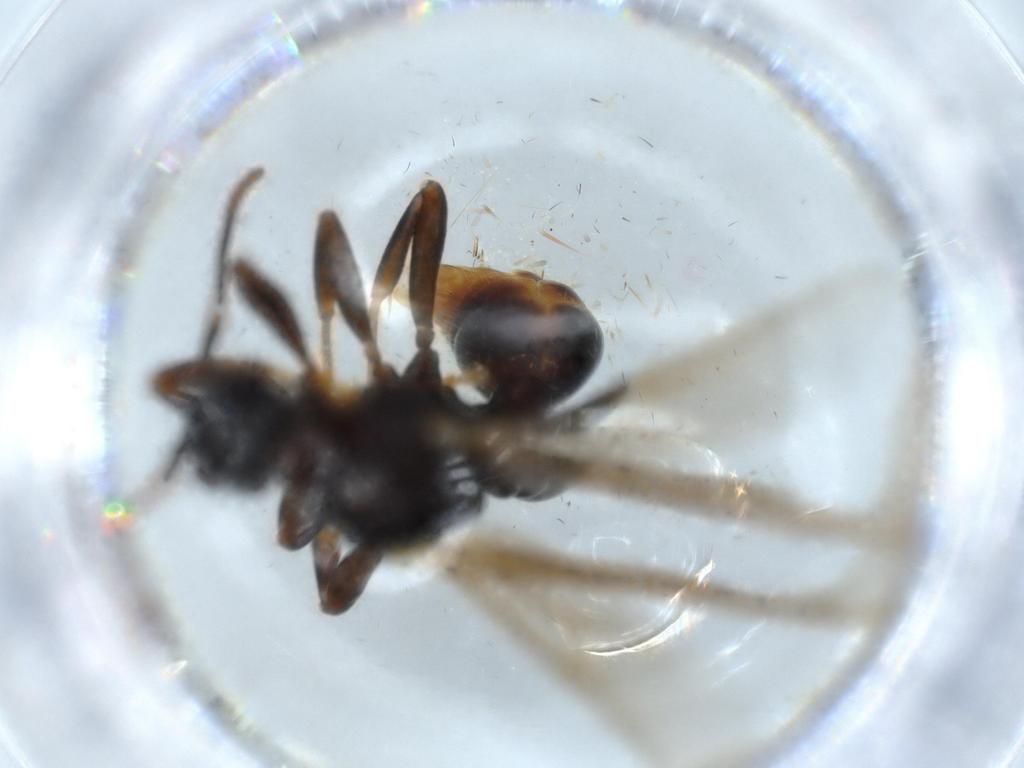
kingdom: Animalia
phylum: Arthropoda
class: Insecta
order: Hymenoptera
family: Formicidae
